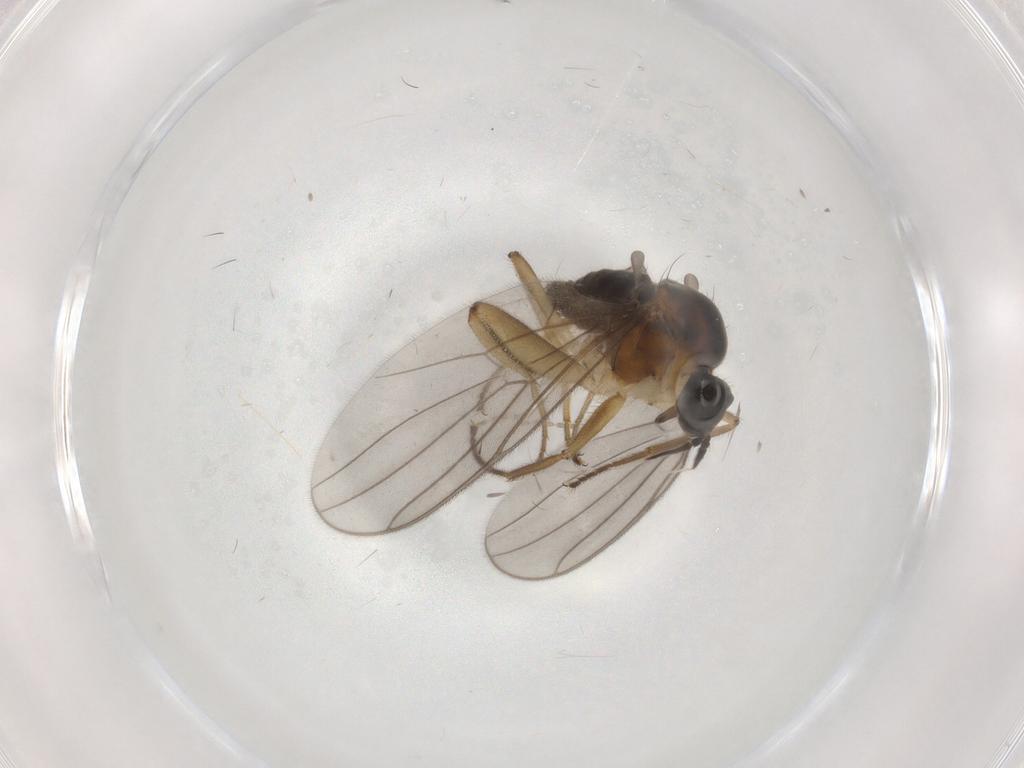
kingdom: Animalia
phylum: Arthropoda
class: Insecta
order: Diptera
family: Hybotidae
